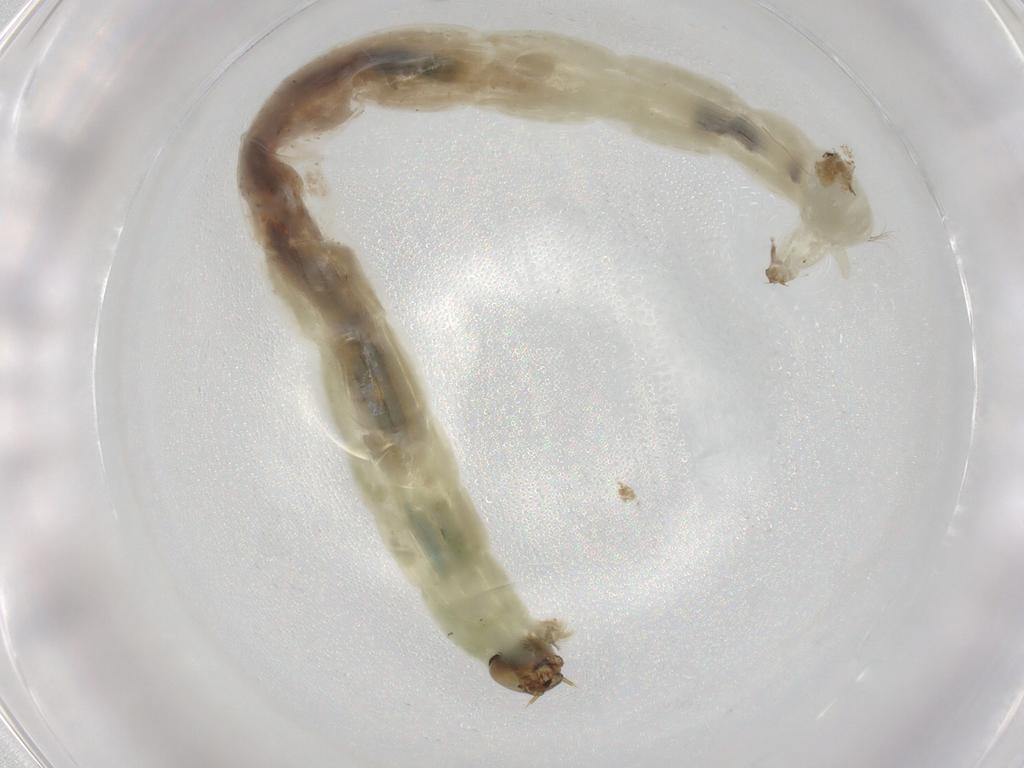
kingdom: Animalia
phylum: Arthropoda
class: Insecta
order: Diptera
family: Chironomidae
